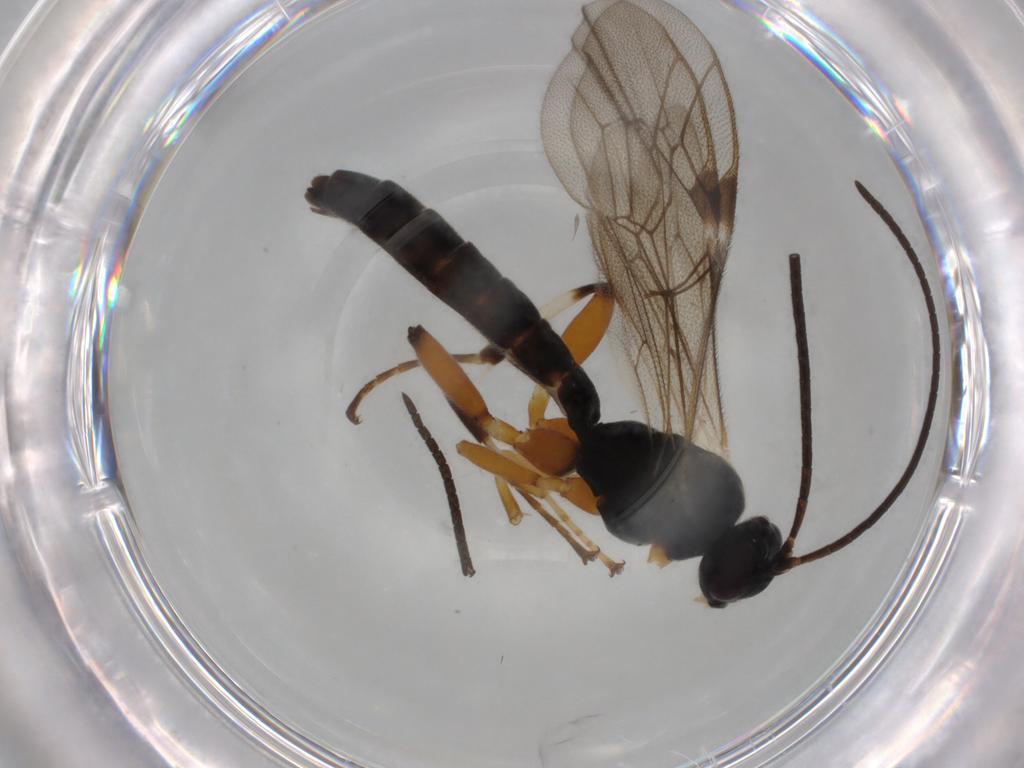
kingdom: Animalia
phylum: Arthropoda
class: Insecta
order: Hymenoptera
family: Ichneumonidae
